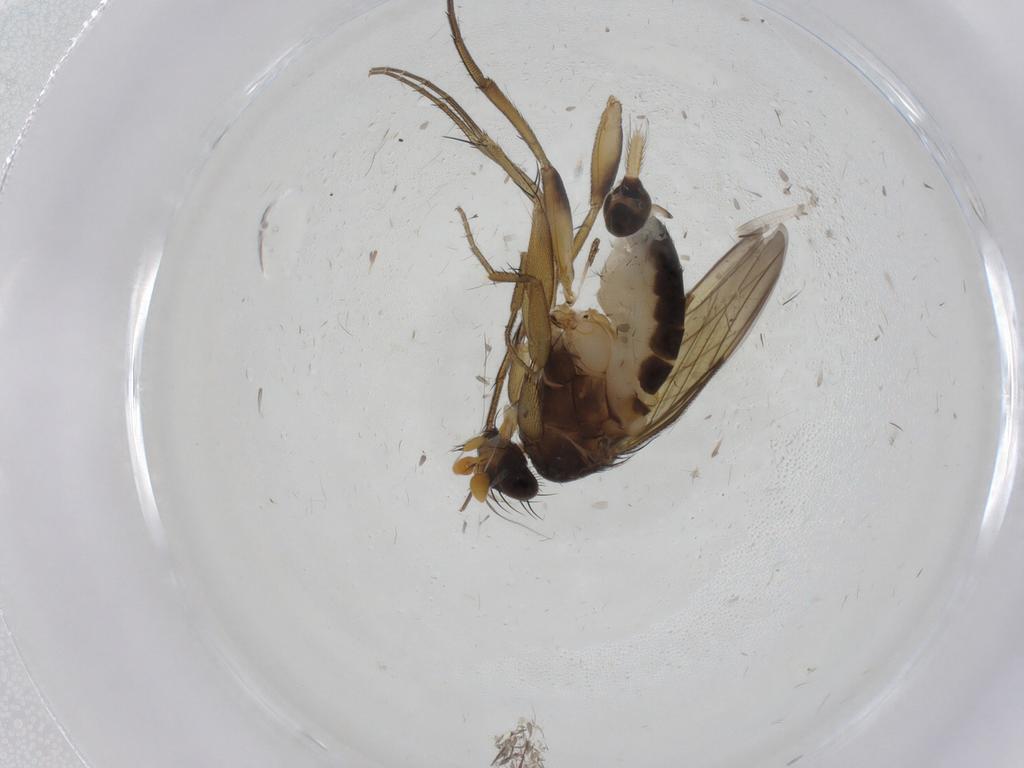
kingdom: Animalia
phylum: Arthropoda
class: Insecta
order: Diptera
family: Phoridae
